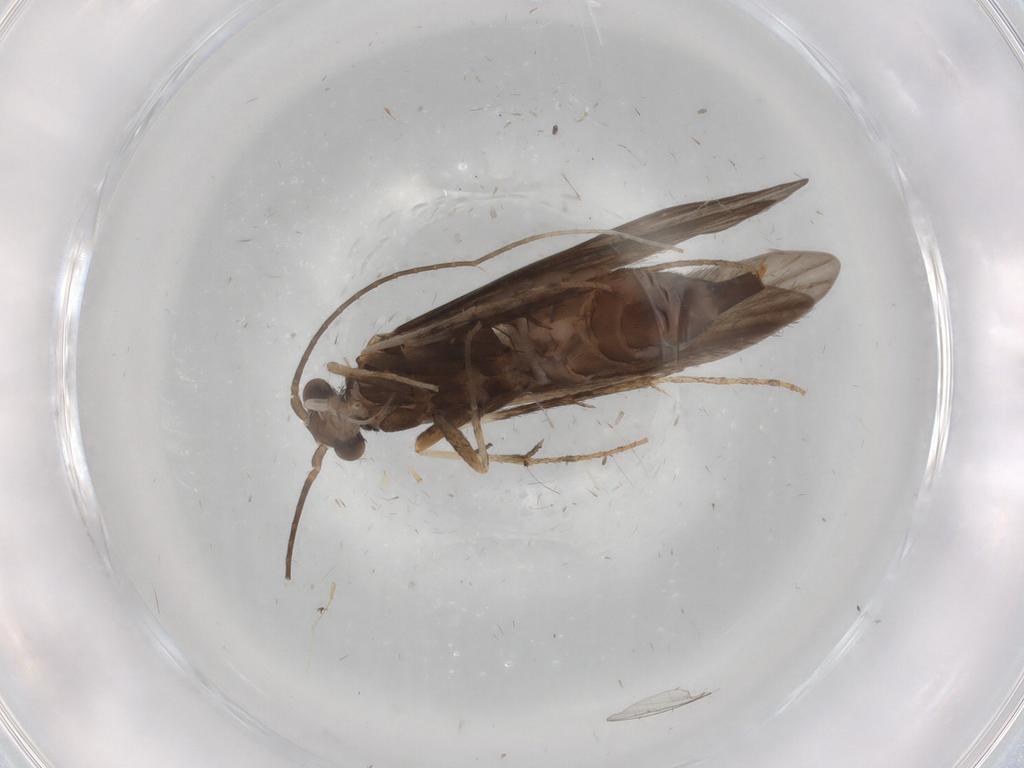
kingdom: Animalia
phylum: Arthropoda
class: Insecta
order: Trichoptera
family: Xiphocentronidae
